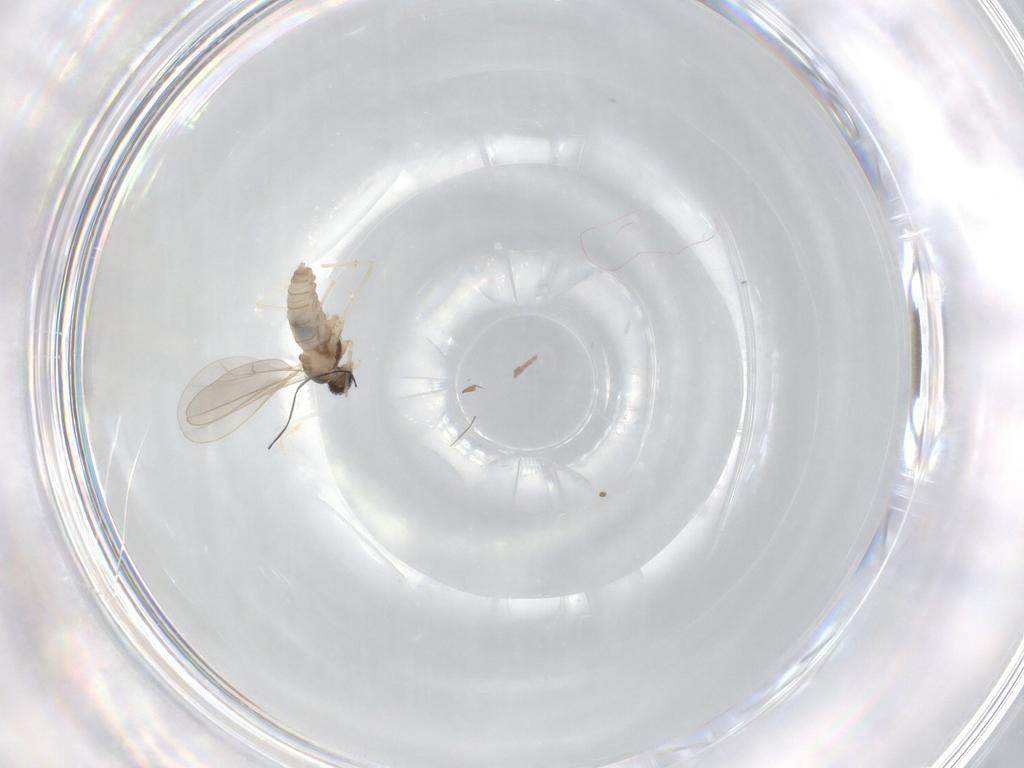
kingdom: Animalia
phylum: Arthropoda
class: Insecta
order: Diptera
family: Cecidomyiidae
